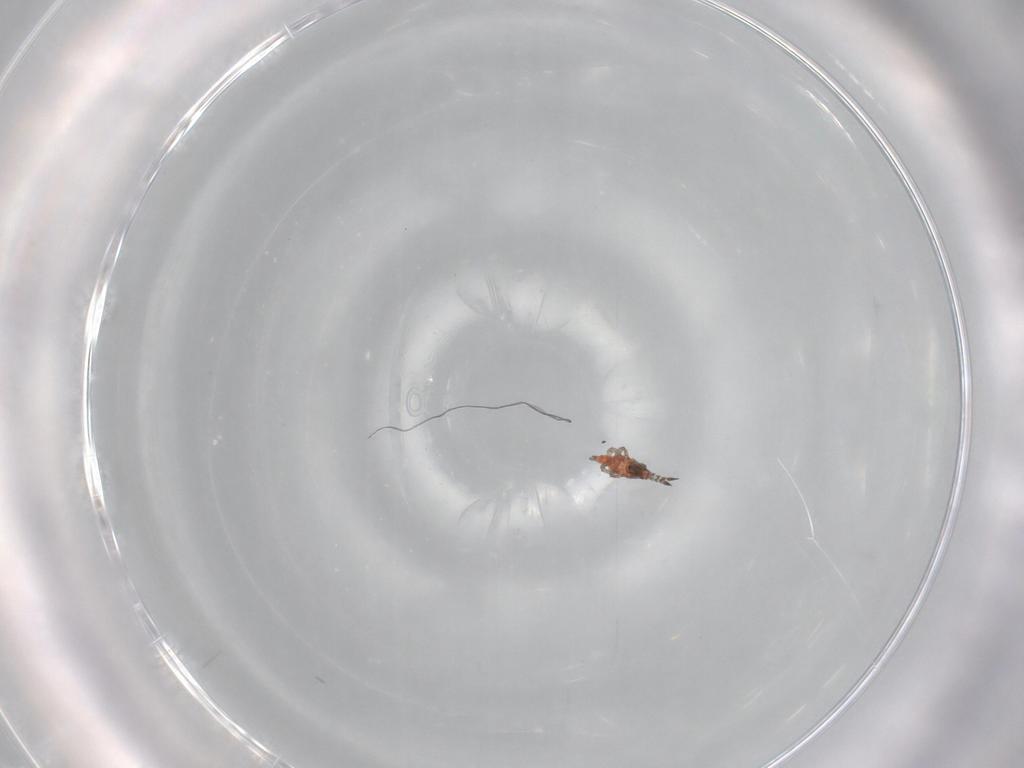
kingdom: Animalia
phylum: Arthropoda
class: Insecta
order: Thysanoptera
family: Phlaeothripidae
